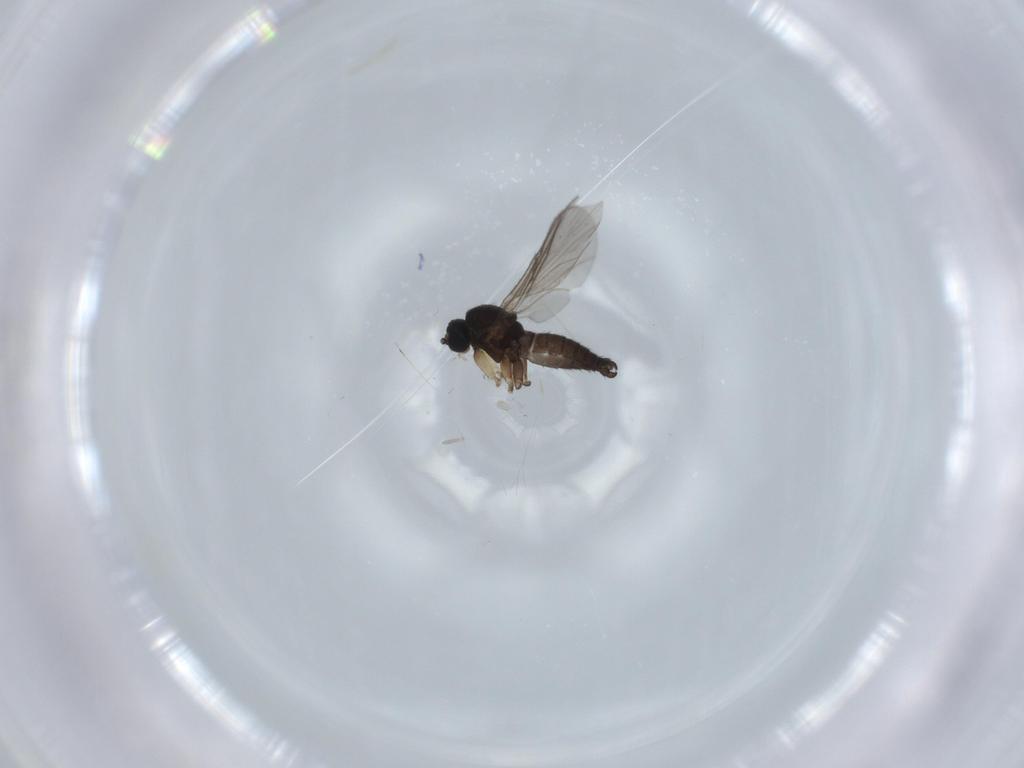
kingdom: Animalia
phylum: Arthropoda
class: Insecta
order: Diptera
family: Sciaridae
